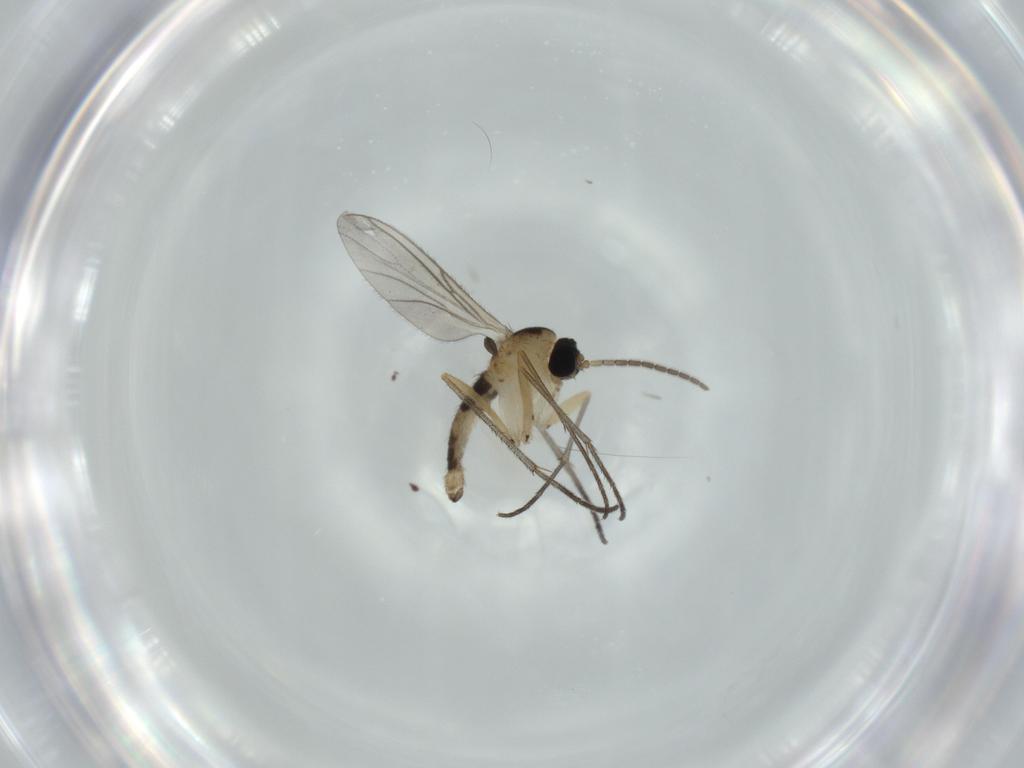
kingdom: Animalia
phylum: Arthropoda
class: Insecta
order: Diptera
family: Sciaridae
